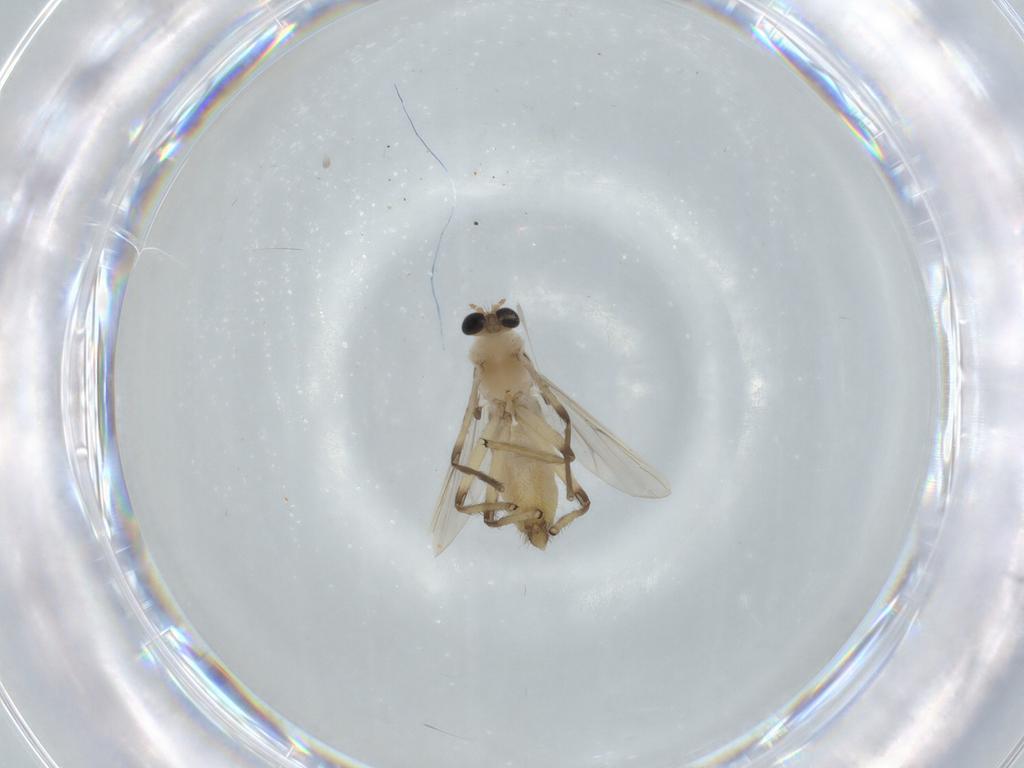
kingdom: Animalia
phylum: Arthropoda
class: Insecta
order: Diptera
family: Chironomidae
